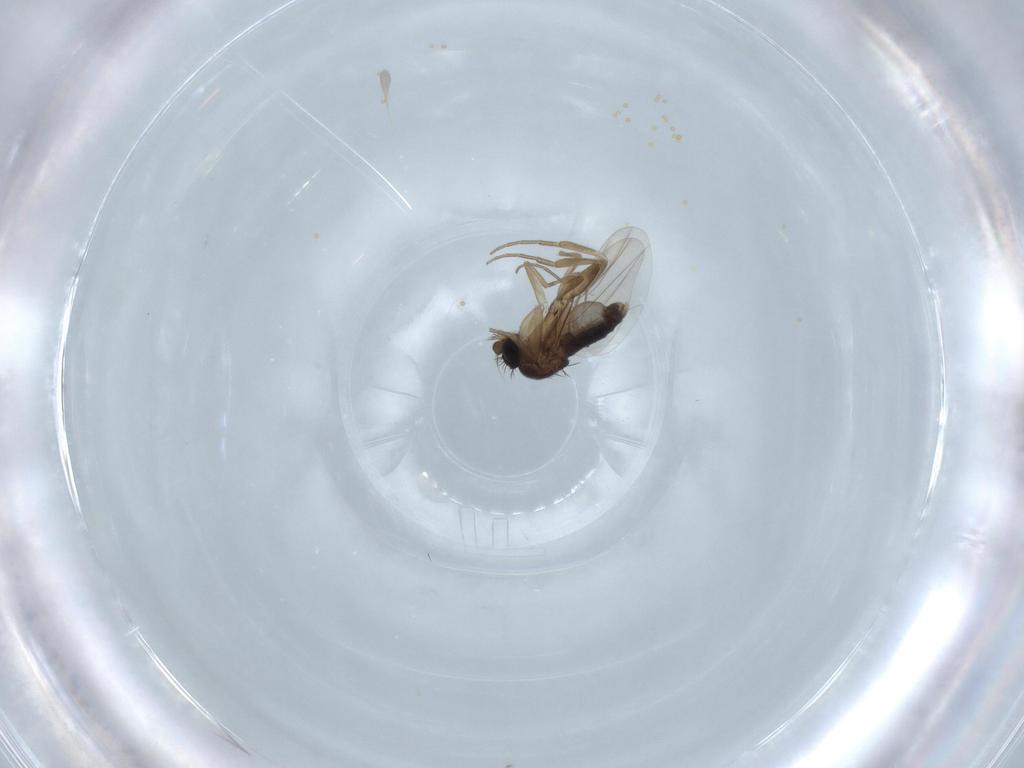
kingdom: Animalia
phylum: Arthropoda
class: Insecta
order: Diptera
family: Phoridae
